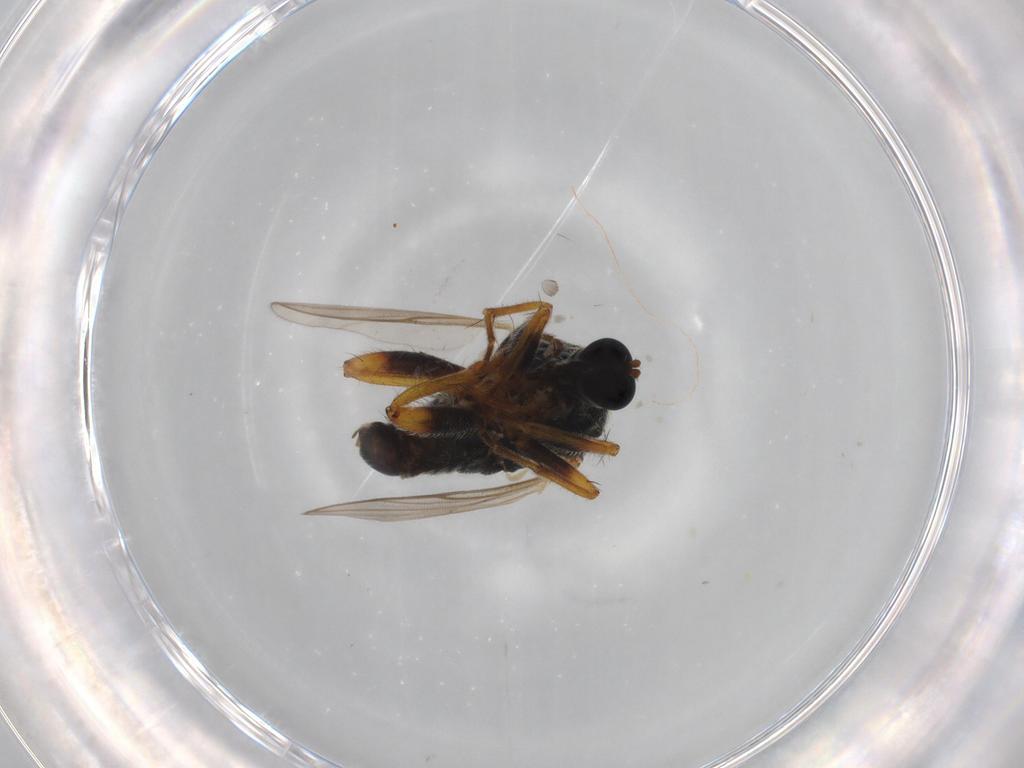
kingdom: Animalia
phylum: Arthropoda
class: Insecta
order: Diptera
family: Hybotidae
